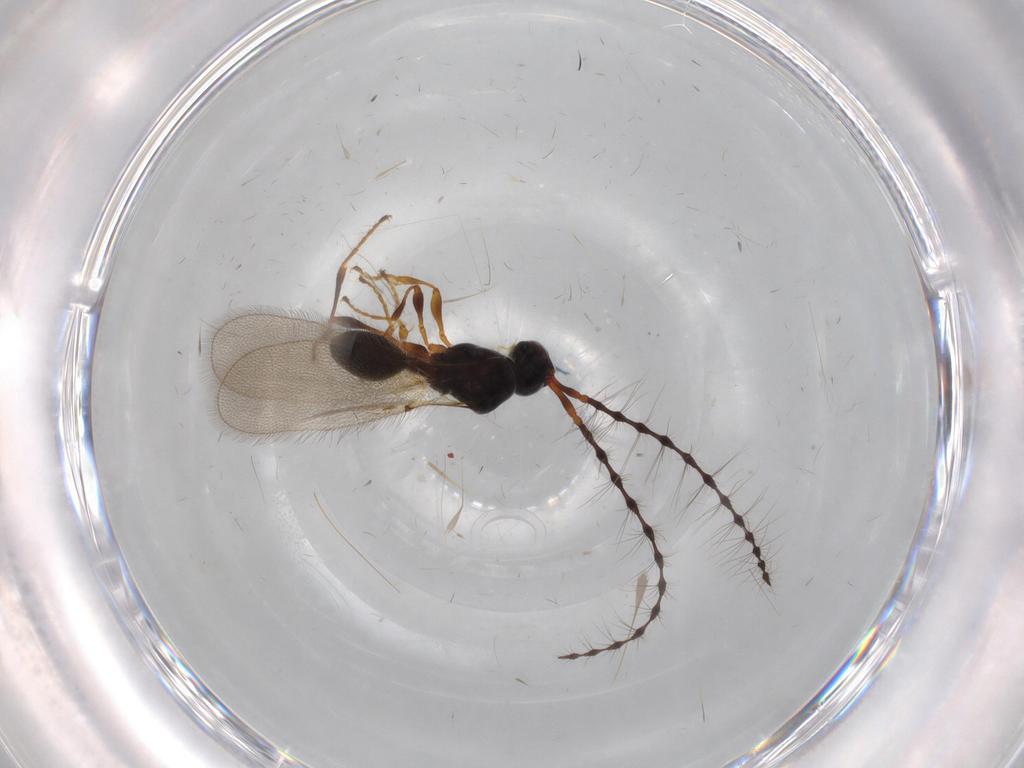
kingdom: Animalia
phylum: Arthropoda
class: Insecta
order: Hymenoptera
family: Diapriidae
